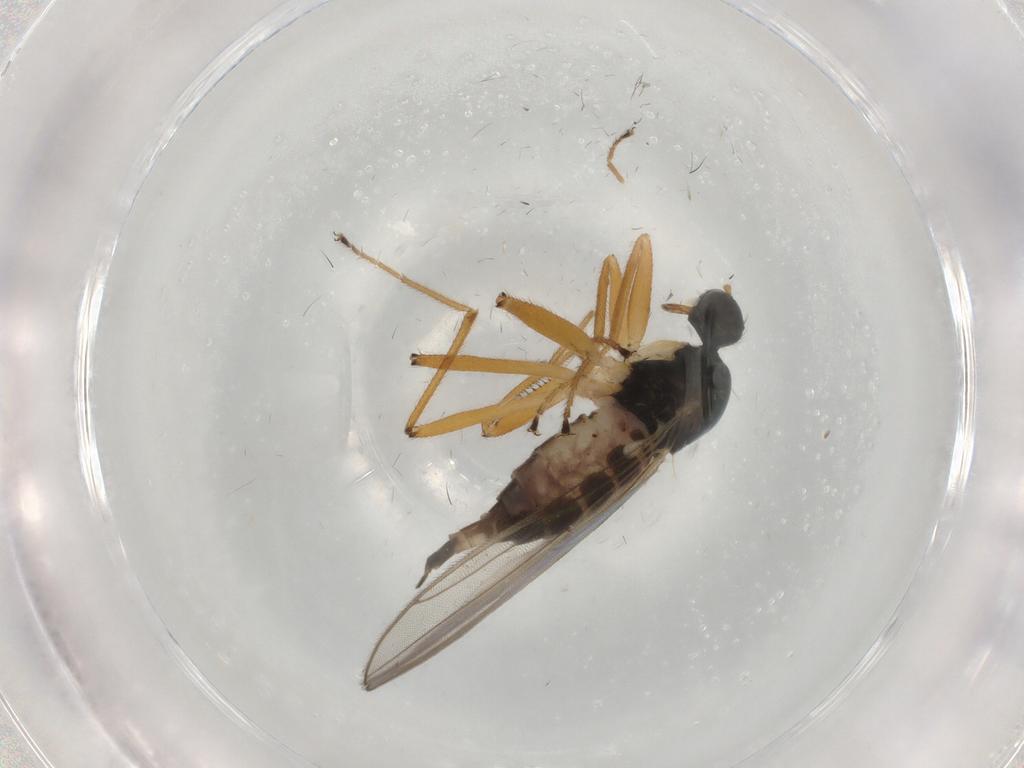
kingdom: Animalia
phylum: Arthropoda
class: Insecta
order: Diptera
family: Hybotidae
